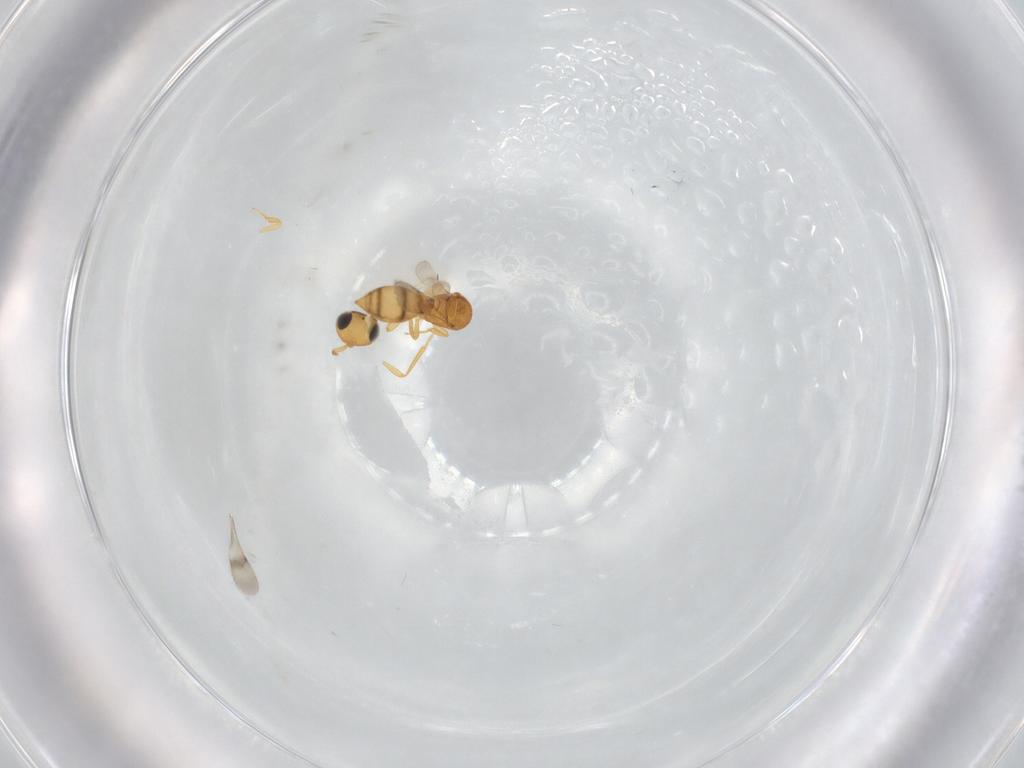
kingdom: Animalia
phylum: Arthropoda
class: Insecta
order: Hymenoptera
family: Scelionidae
